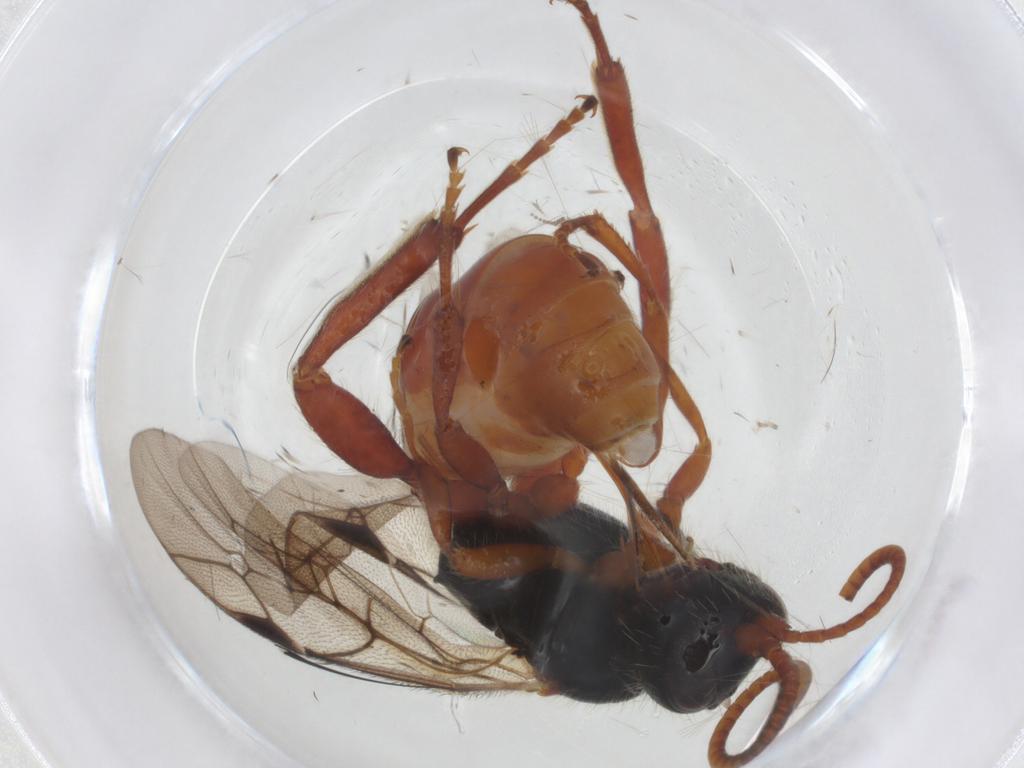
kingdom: Animalia
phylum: Arthropoda
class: Insecta
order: Hymenoptera
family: Ichneumonidae
